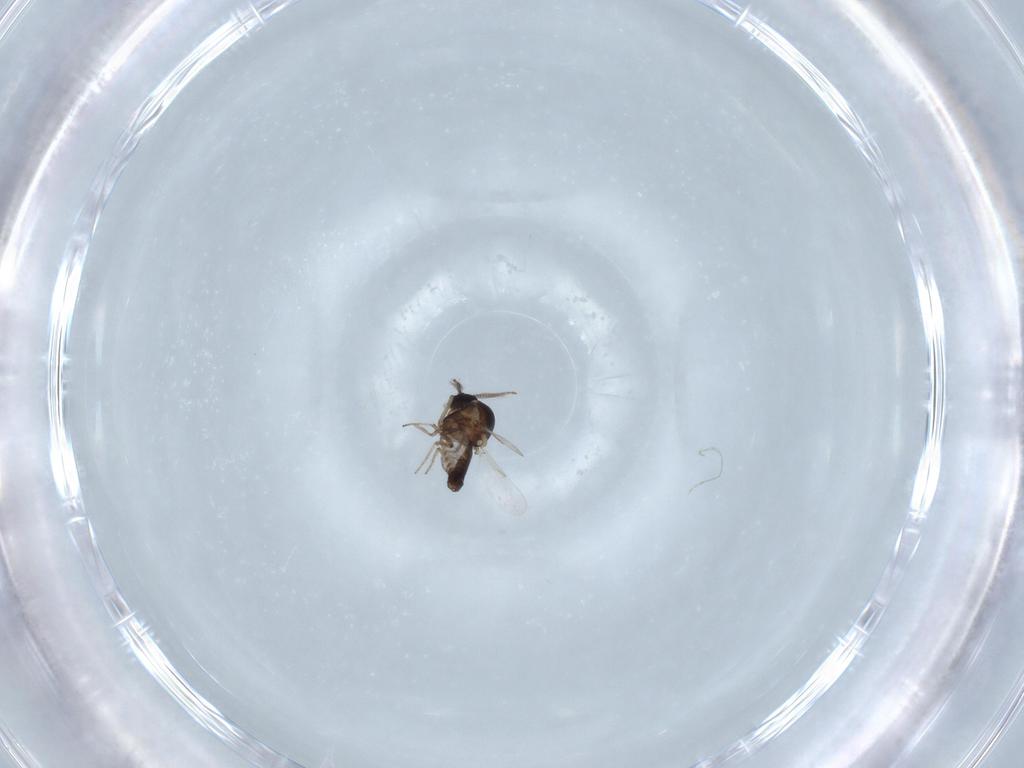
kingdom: Animalia
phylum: Arthropoda
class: Insecta
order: Diptera
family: Ceratopogonidae
